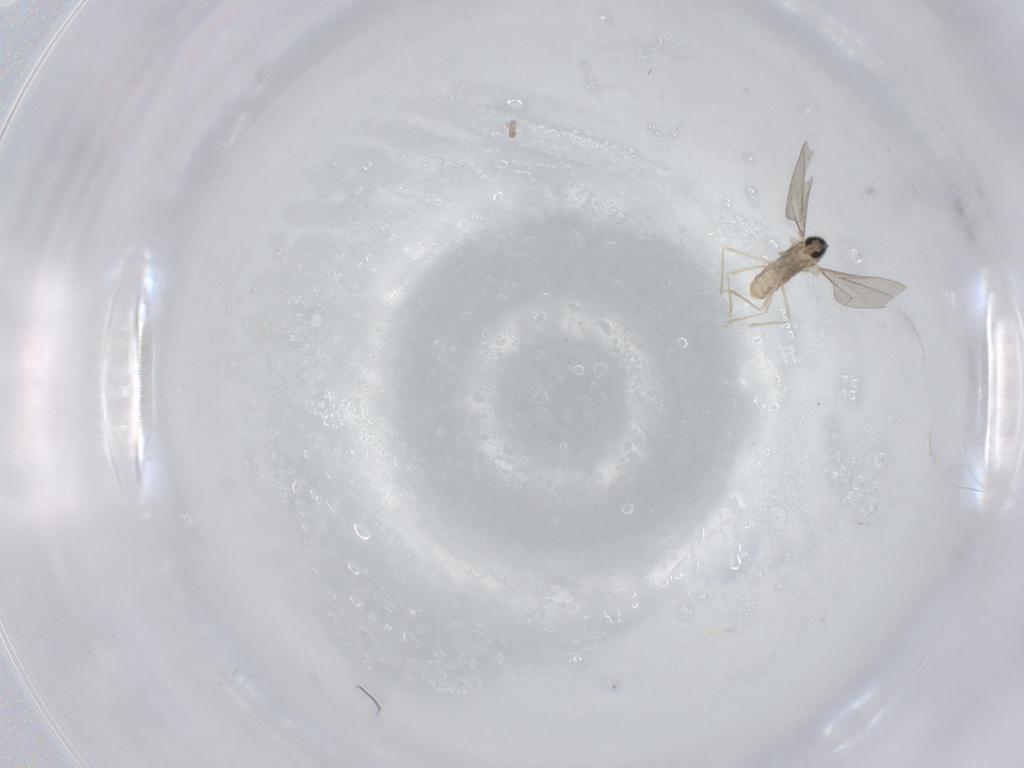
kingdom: Animalia
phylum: Arthropoda
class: Insecta
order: Diptera
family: Cecidomyiidae
